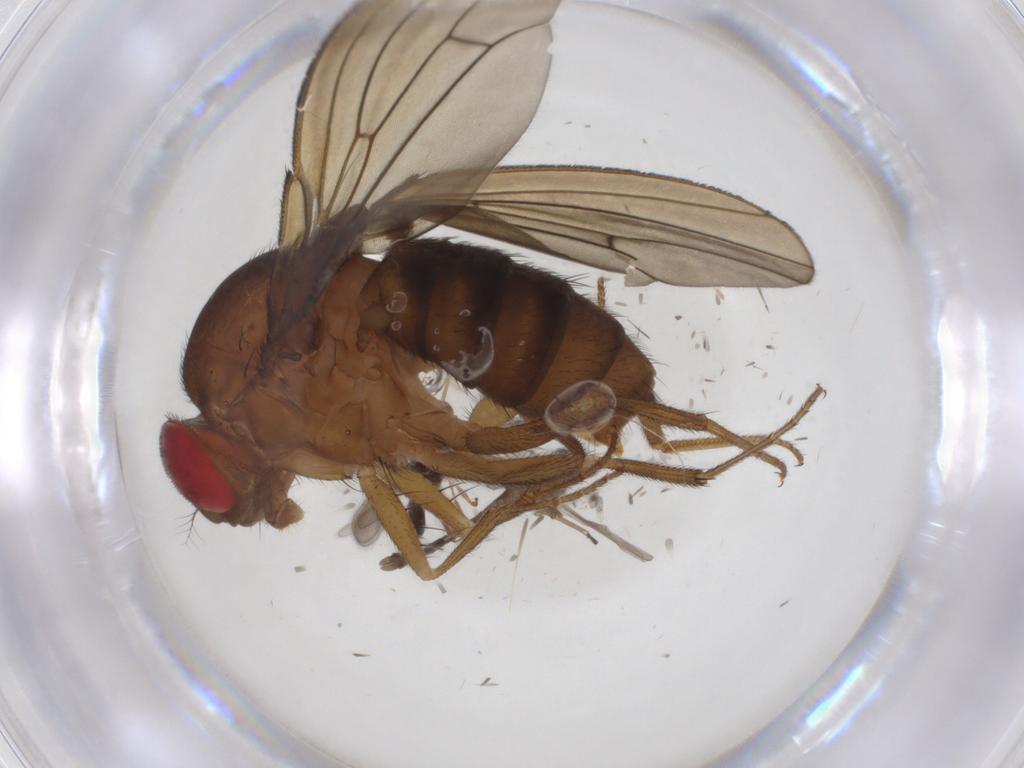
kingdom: Animalia
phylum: Arthropoda
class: Insecta
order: Diptera
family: Drosophilidae
